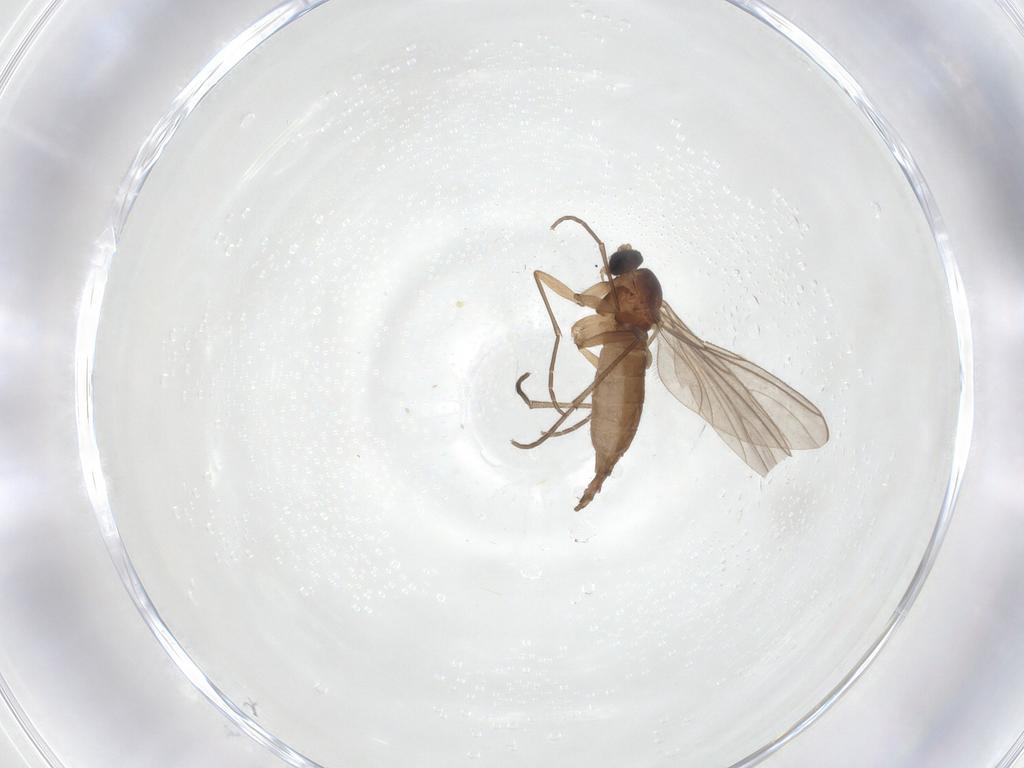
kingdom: Animalia
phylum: Arthropoda
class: Insecta
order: Diptera
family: Sciaridae
